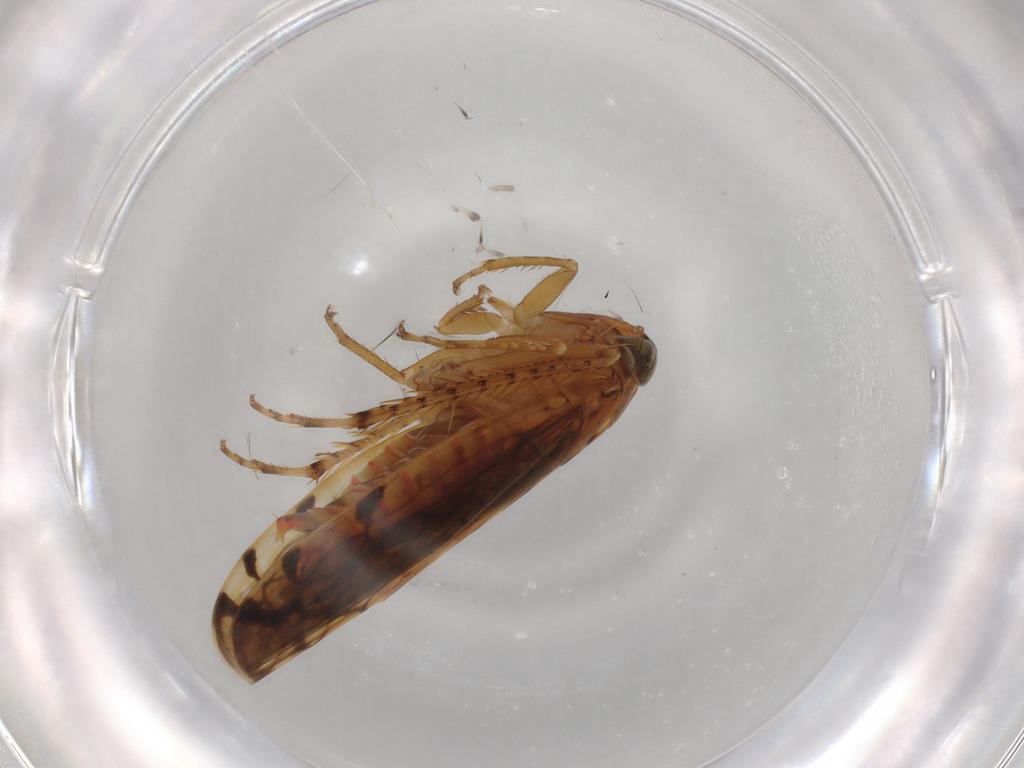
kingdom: Animalia
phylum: Arthropoda
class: Insecta
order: Hemiptera
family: Cicadellidae
